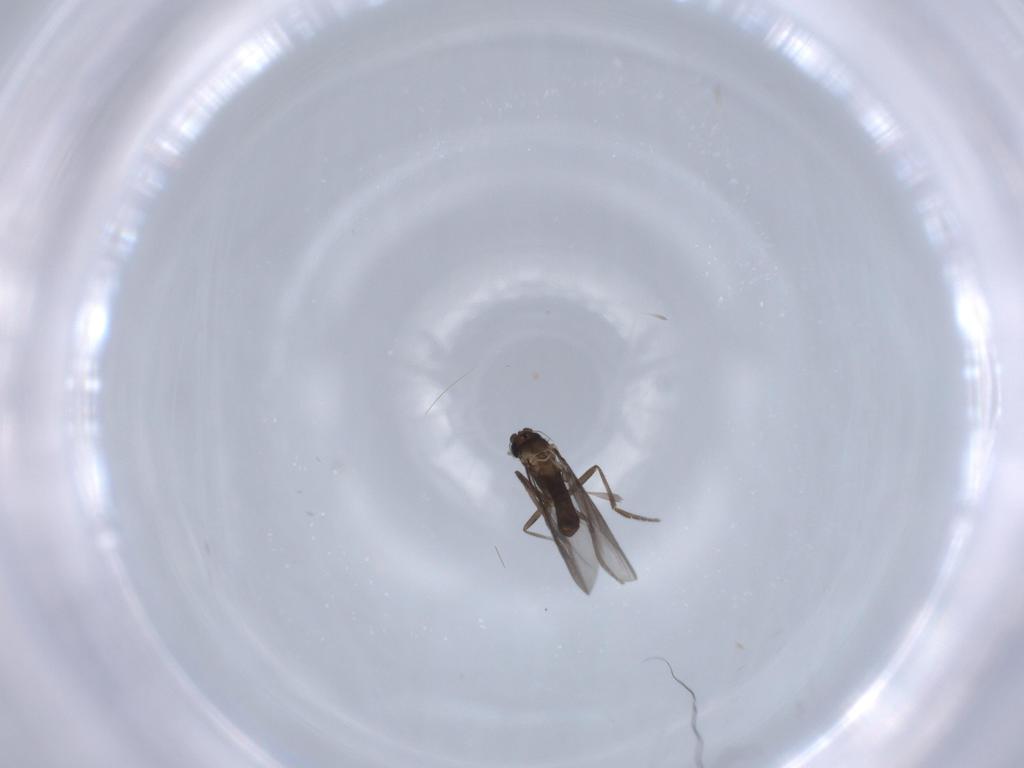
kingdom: Animalia
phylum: Arthropoda
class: Insecta
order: Diptera
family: Phoridae
